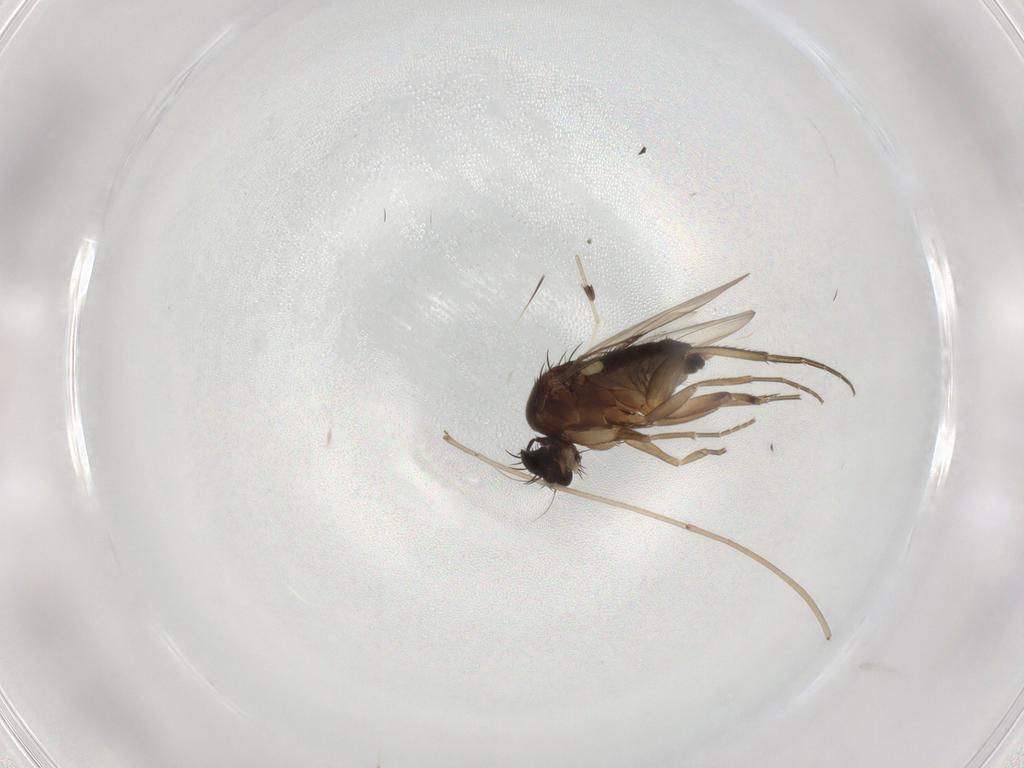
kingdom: Animalia
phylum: Arthropoda
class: Insecta
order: Diptera
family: Phoridae
